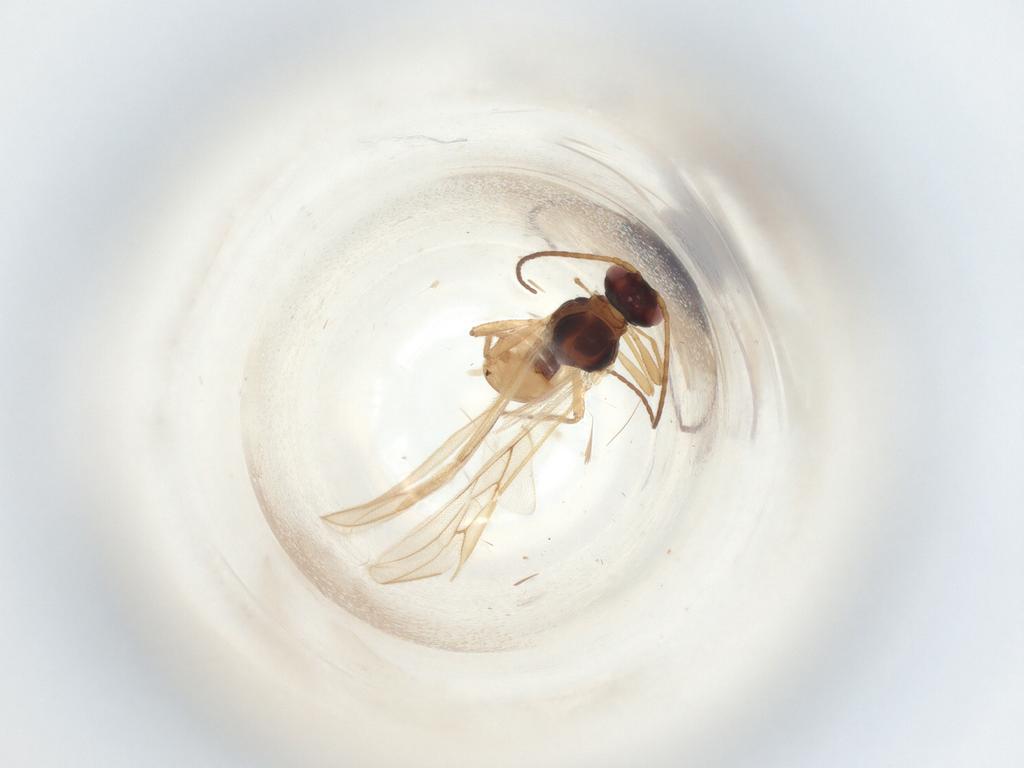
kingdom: Animalia
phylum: Arthropoda
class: Insecta
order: Hymenoptera
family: Braconidae
